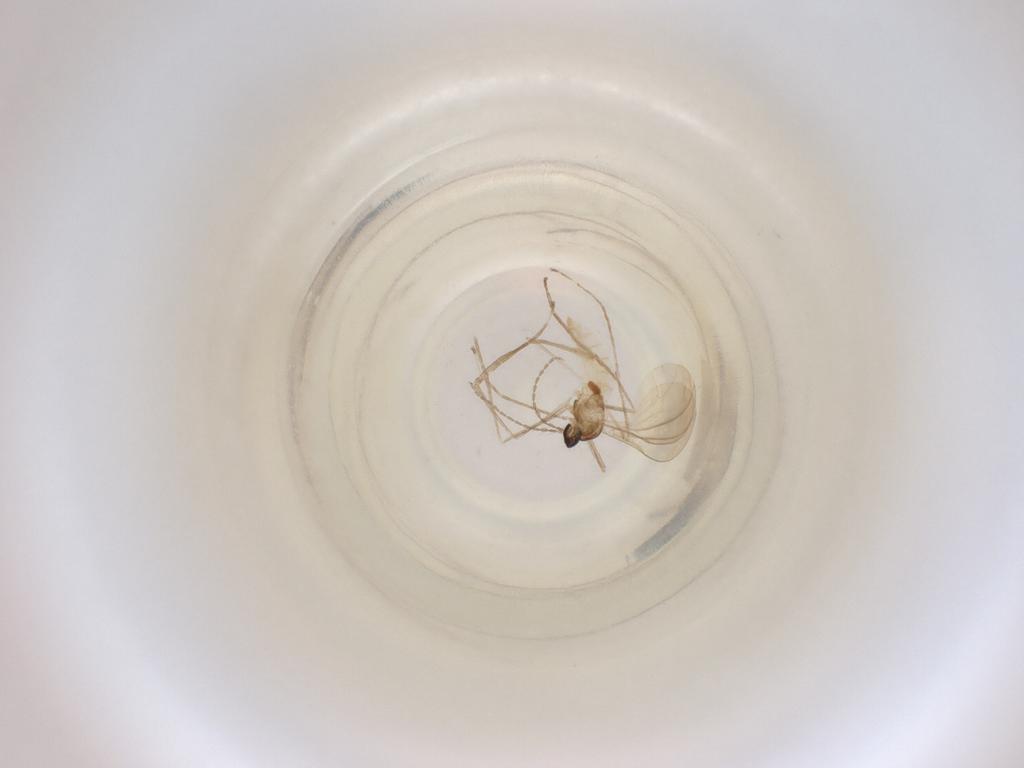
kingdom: Animalia
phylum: Arthropoda
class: Insecta
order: Diptera
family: Cecidomyiidae
